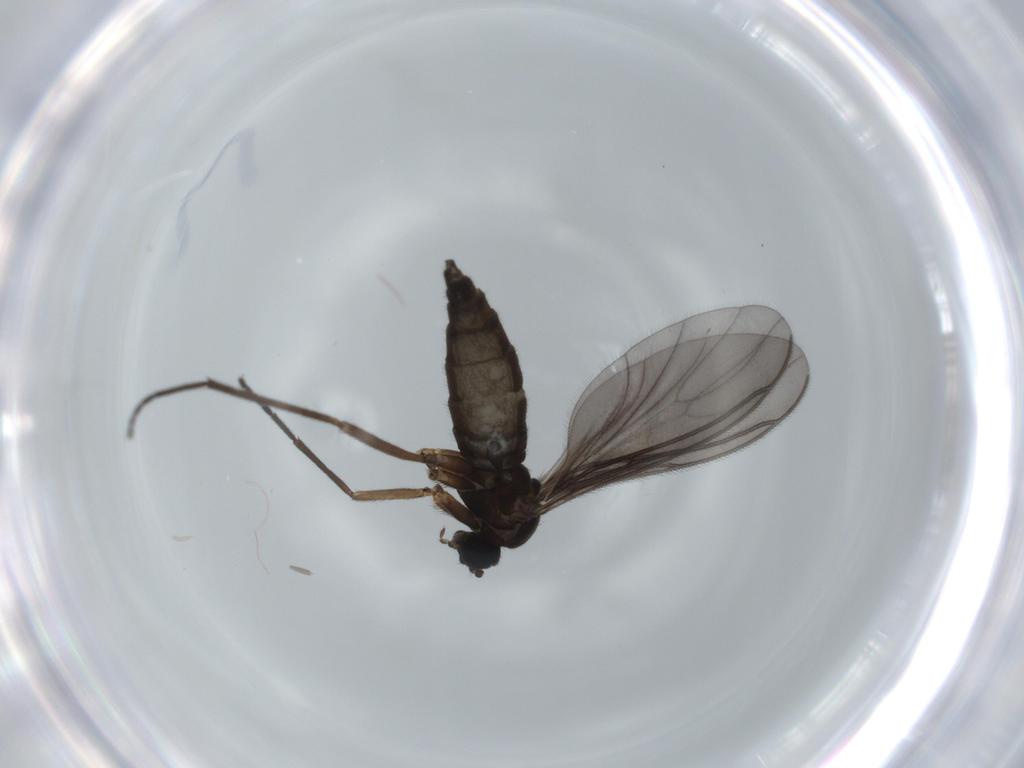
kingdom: Animalia
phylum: Arthropoda
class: Insecta
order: Diptera
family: Sciaridae
